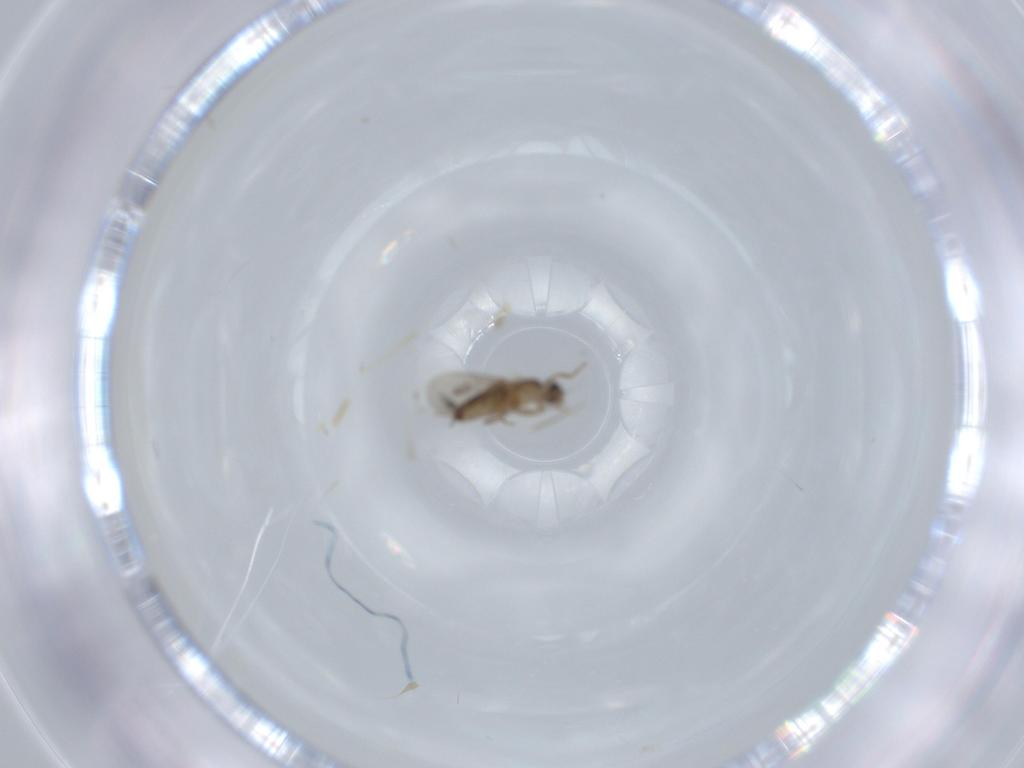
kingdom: Animalia
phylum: Arthropoda
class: Insecta
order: Diptera
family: Phoridae
